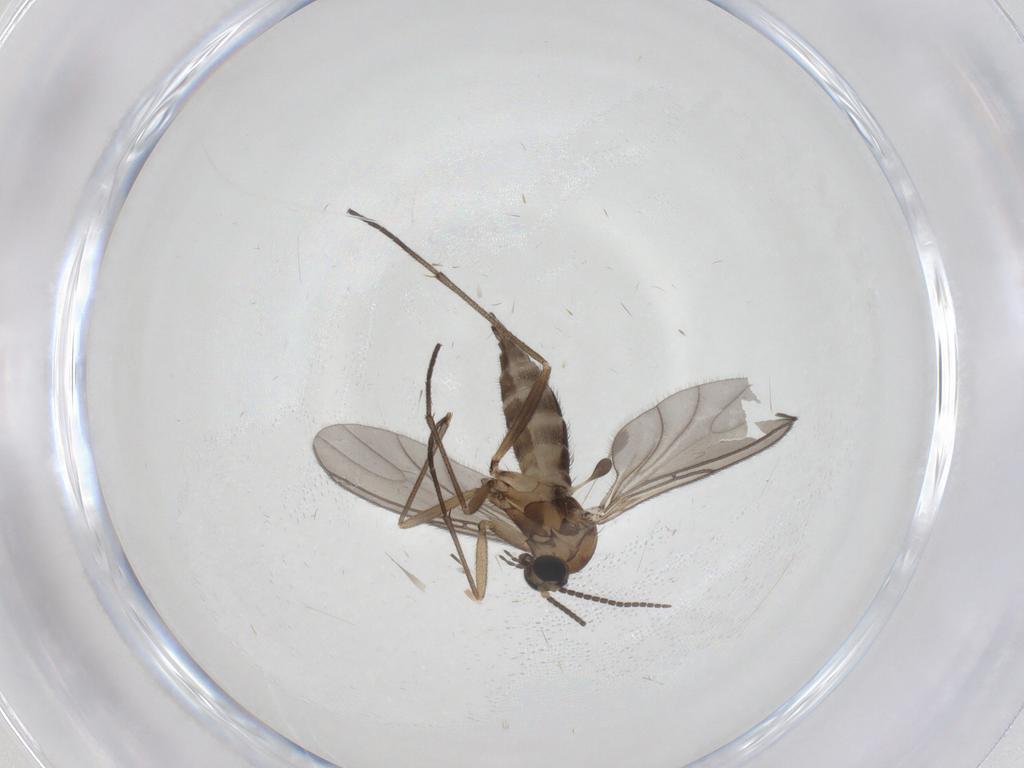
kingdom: Animalia
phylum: Arthropoda
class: Insecta
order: Diptera
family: Sciaridae
